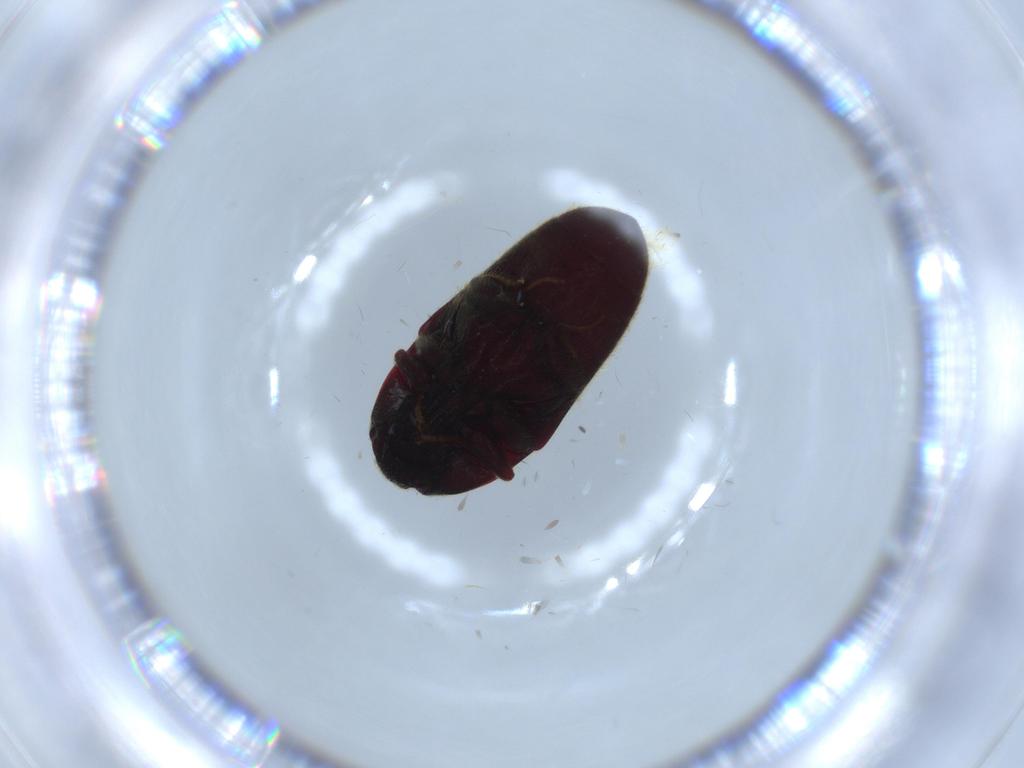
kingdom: Animalia
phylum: Arthropoda
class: Insecta
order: Coleoptera
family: Throscidae
